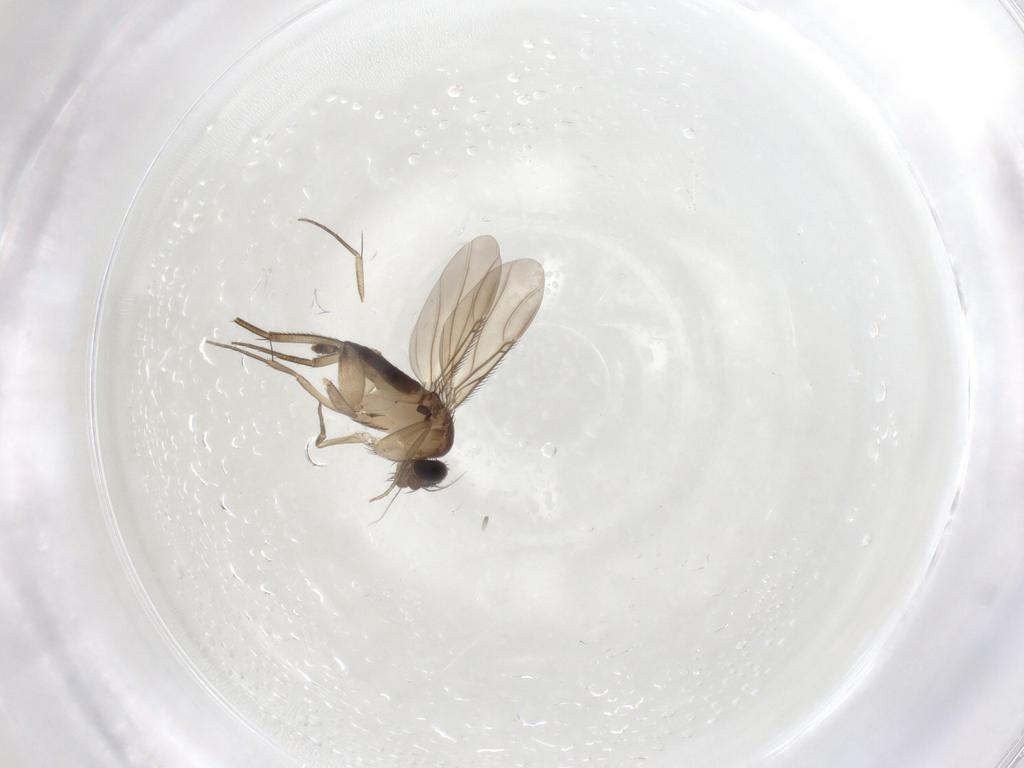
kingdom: Animalia
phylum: Arthropoda
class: Insecta
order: Diptera
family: Phoridae
